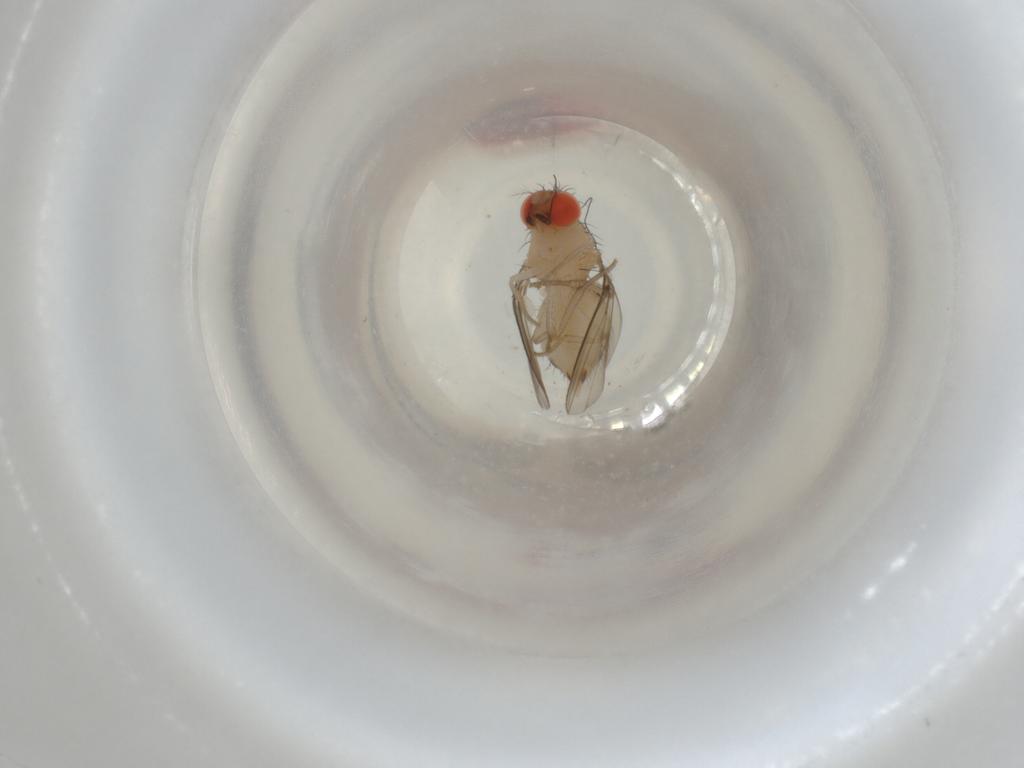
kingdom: Animalia
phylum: Arthropoda
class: Insecta
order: Diptera
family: Drosophilidae
